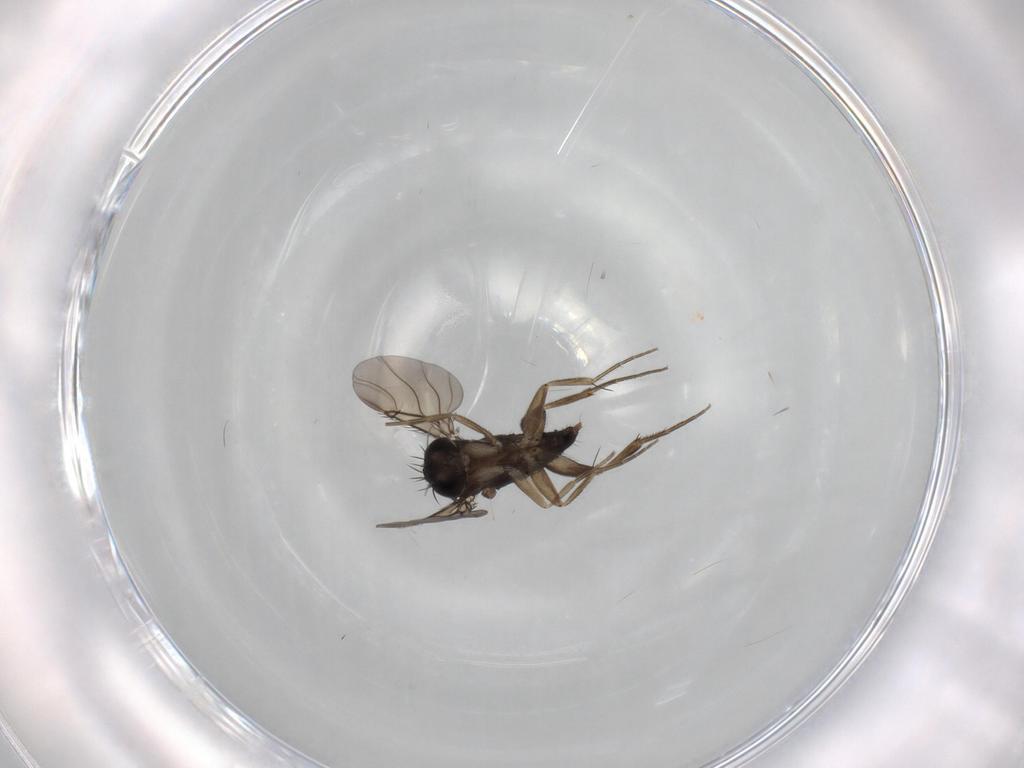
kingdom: Animalia
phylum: Arthropoda
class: Insecta
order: Diptera
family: Phoridae
